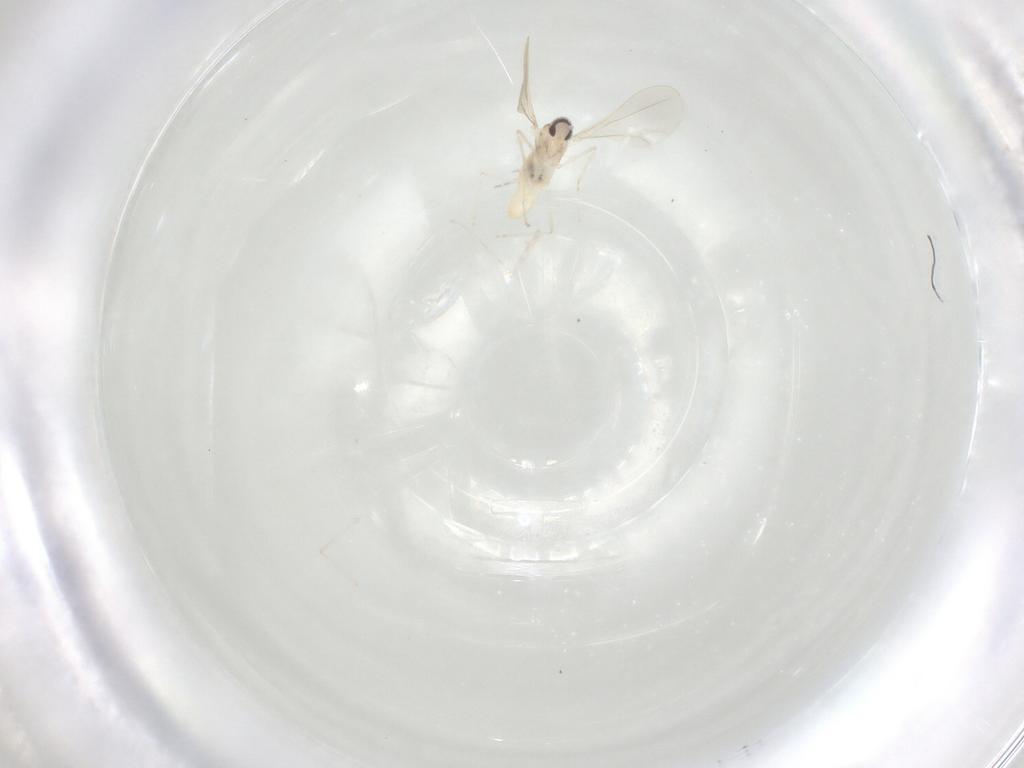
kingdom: Animalia
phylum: Arthropoda
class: Insecta
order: Diptera
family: Cecidomyiidae
